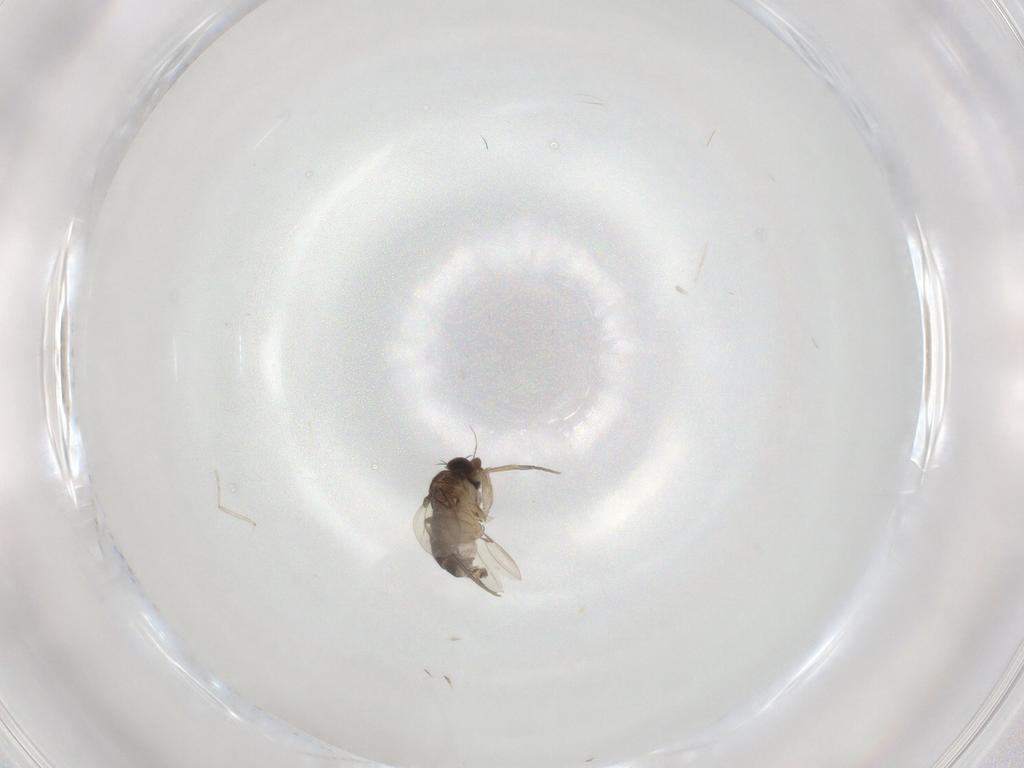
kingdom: Animalia
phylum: Arthropoda
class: Insecta
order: Diptera
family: Phoridae
